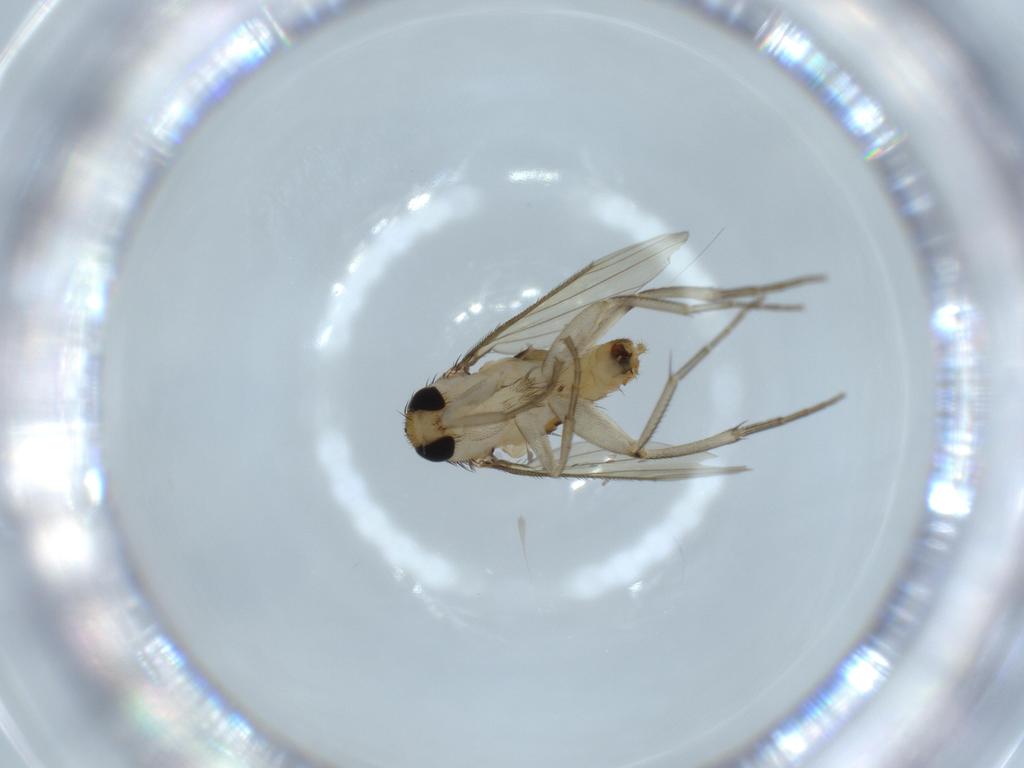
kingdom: Animalia
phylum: Arthropoda
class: Insecta
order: Diptera
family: Phoridae
